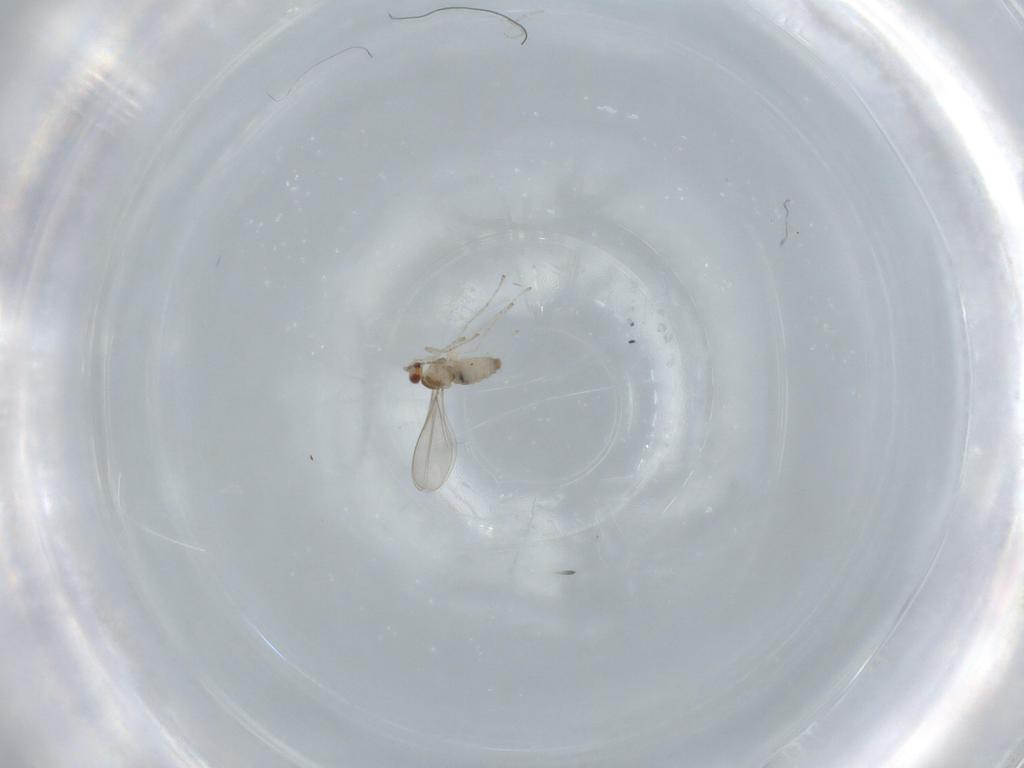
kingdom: Animalia
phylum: Arthropoda
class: Insecta
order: Diptera
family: Cecidomyiidae
